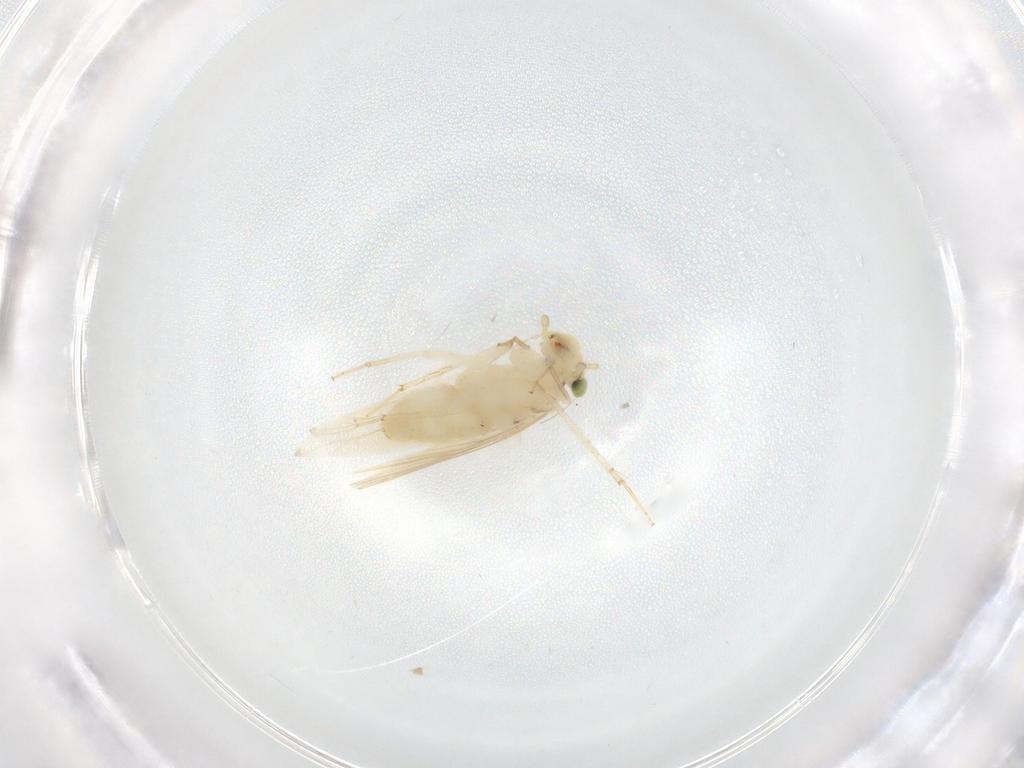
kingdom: Animalia
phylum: Arthropoda
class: Insecta
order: Psocodea
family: Lepidopsocidae
